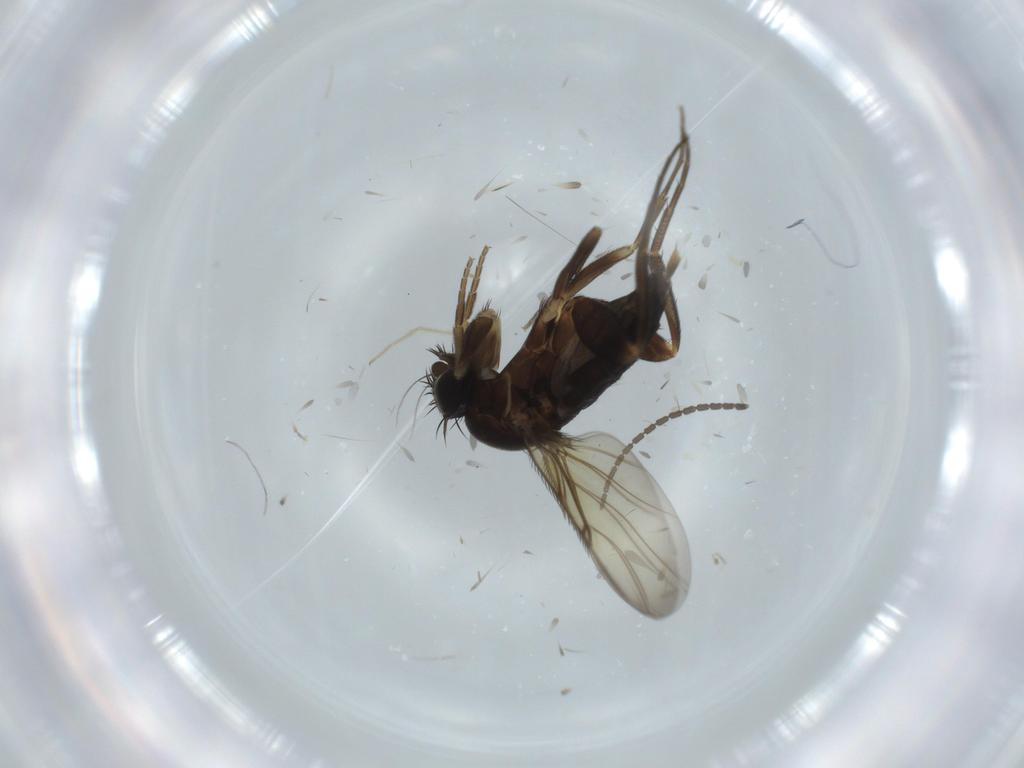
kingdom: Animalia
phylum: Arthropoda
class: Insecta
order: Diptera
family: Phoridae
